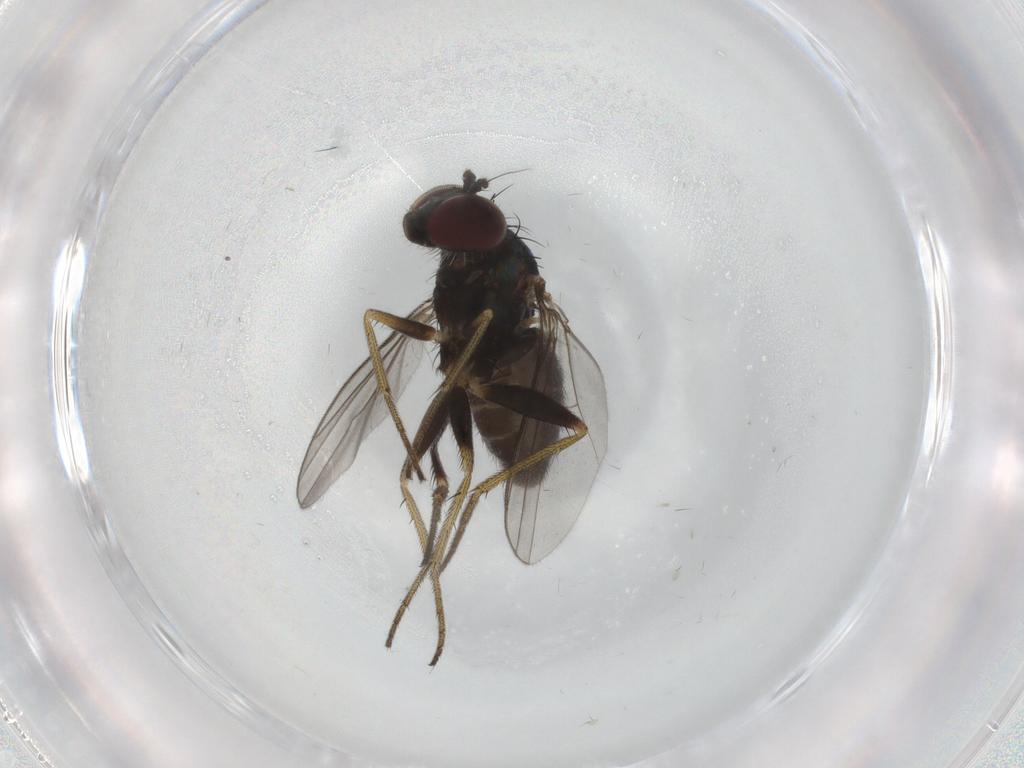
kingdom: Animalia
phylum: Arthropoda
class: Insecta
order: Diptera
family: Dolichopodidae
